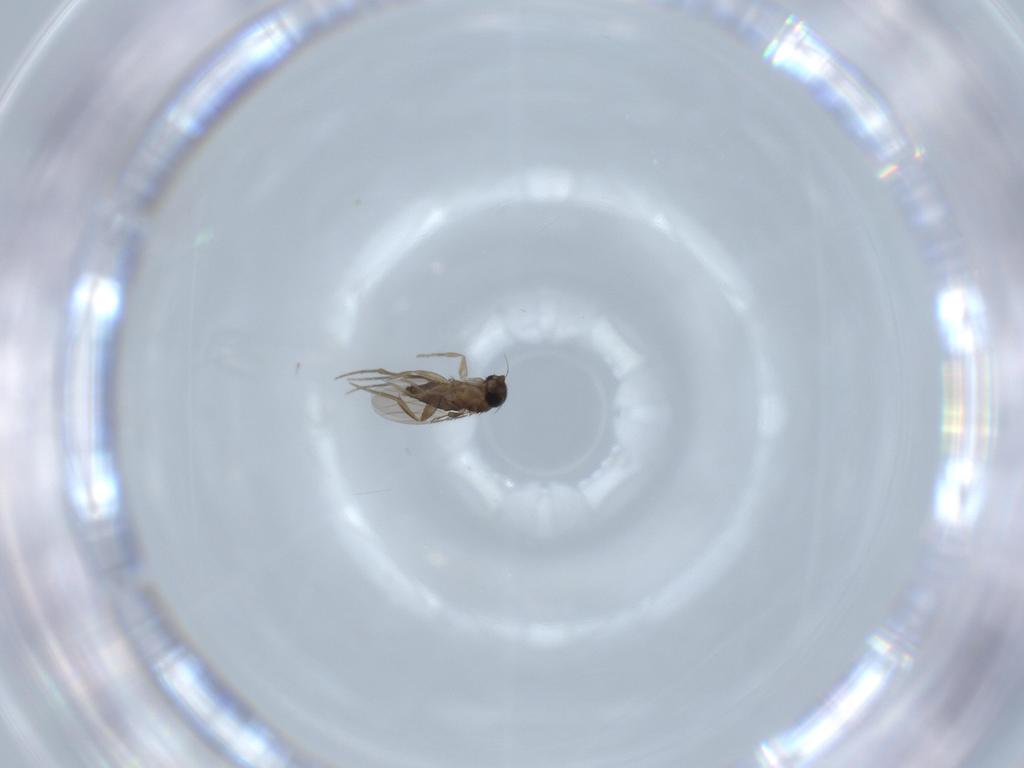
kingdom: Animalia
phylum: Arthropoda
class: Insecta
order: Diptera
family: Phoridae
